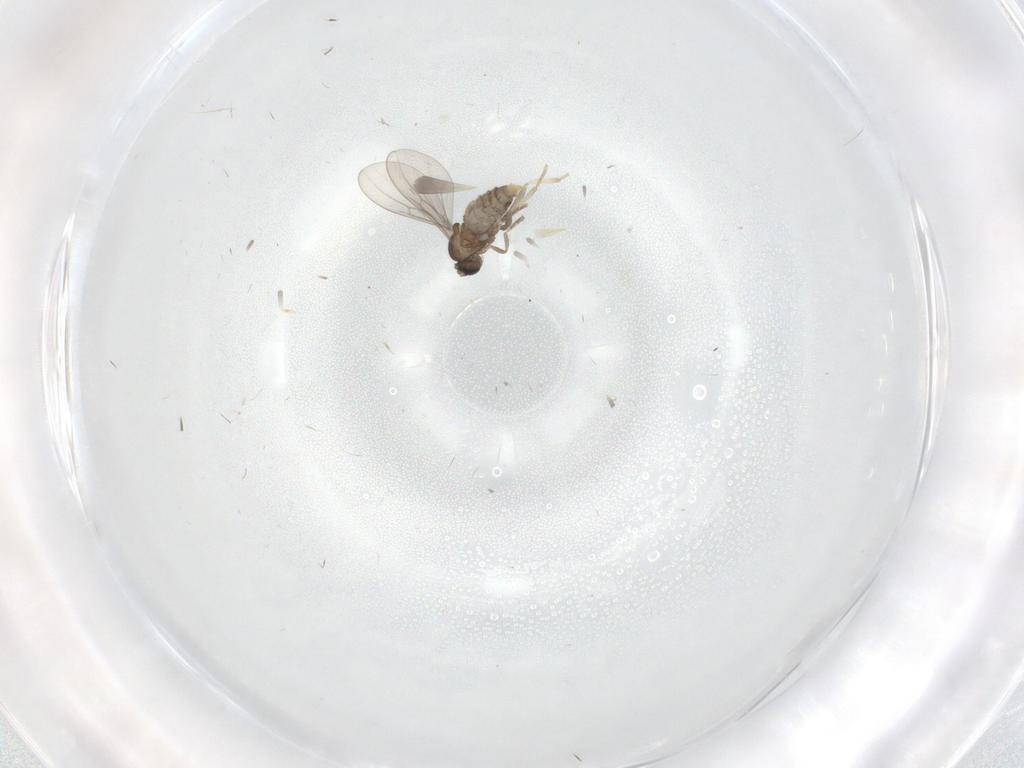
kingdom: Animalia
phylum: Arthropoda
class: Insecta
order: Diptera
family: Cecidomyiidae
